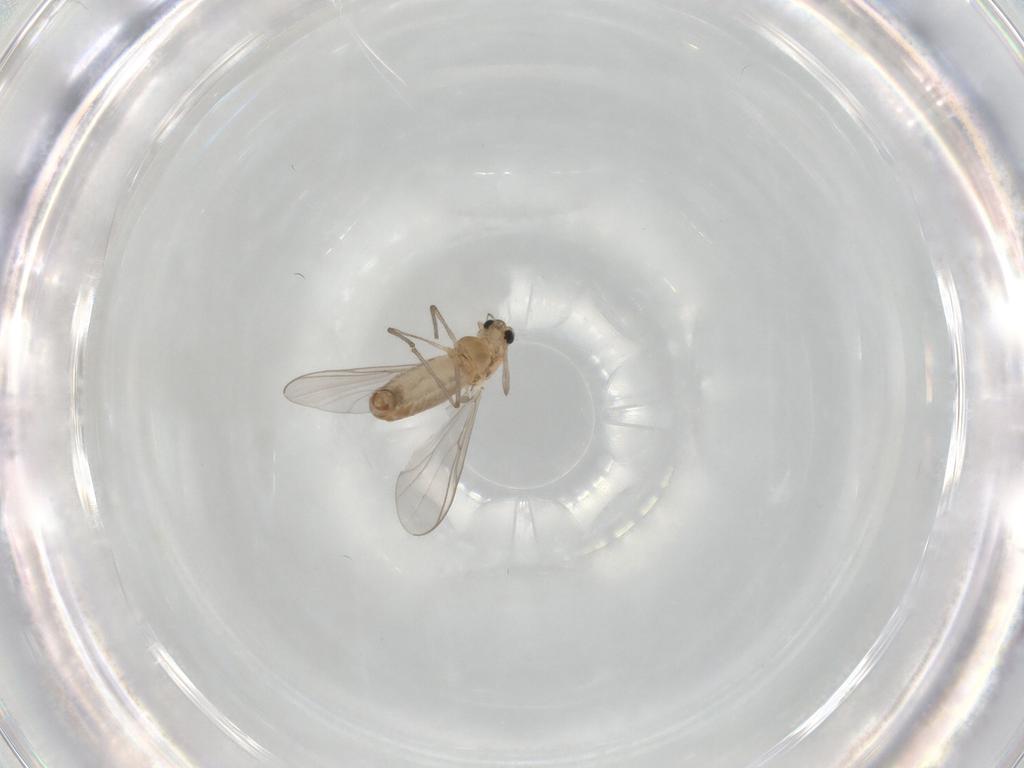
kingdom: Animalia
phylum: Arthropoda
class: Insecta
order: Diptera
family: Chironomidae
